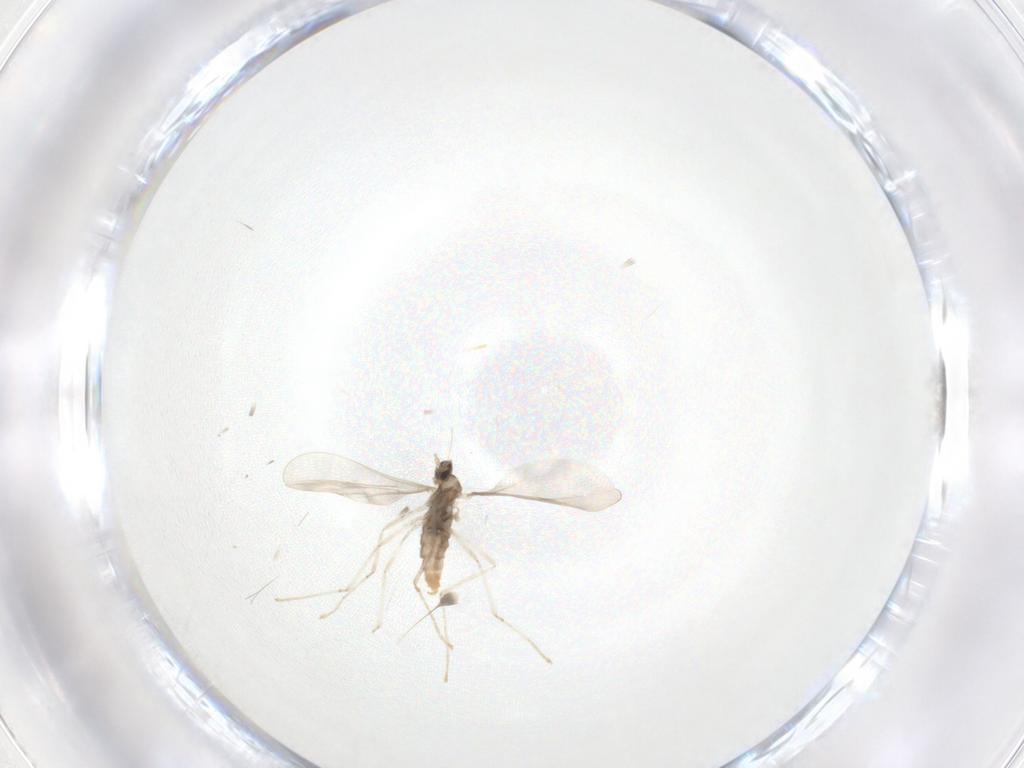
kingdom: Animalia
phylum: Arthropoda
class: Insecta
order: Diptera
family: Cecidomyiidae
